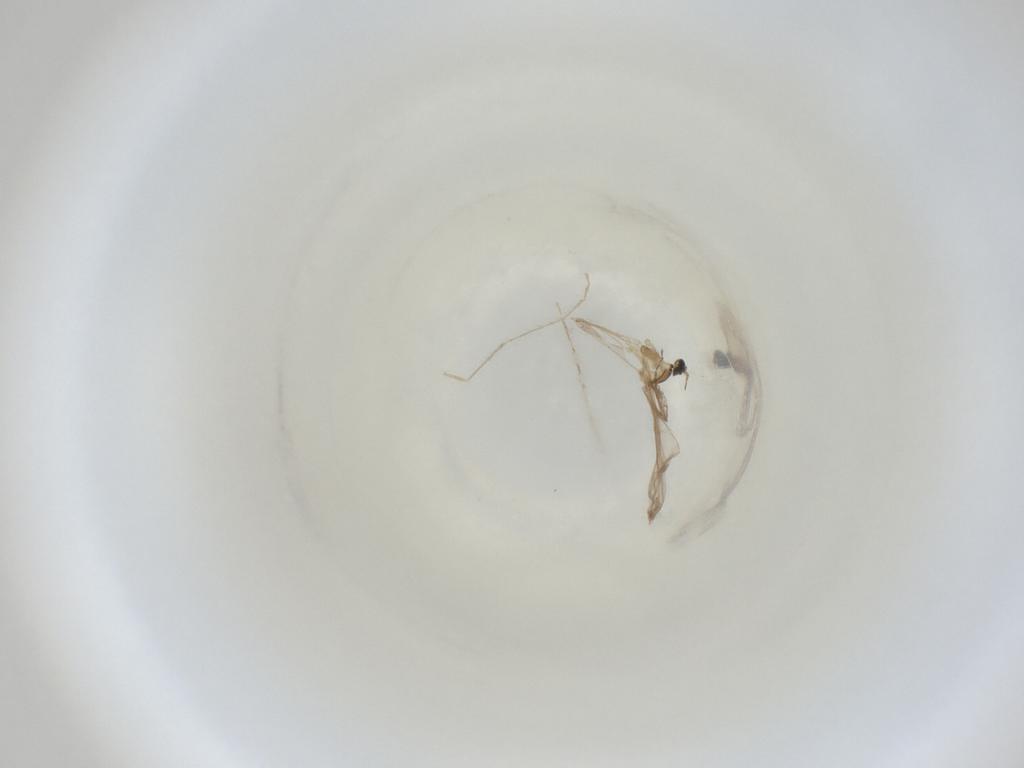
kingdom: Animalia
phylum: Arthropoda
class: Insecta
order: Diptera
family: Cecidomyiidae
